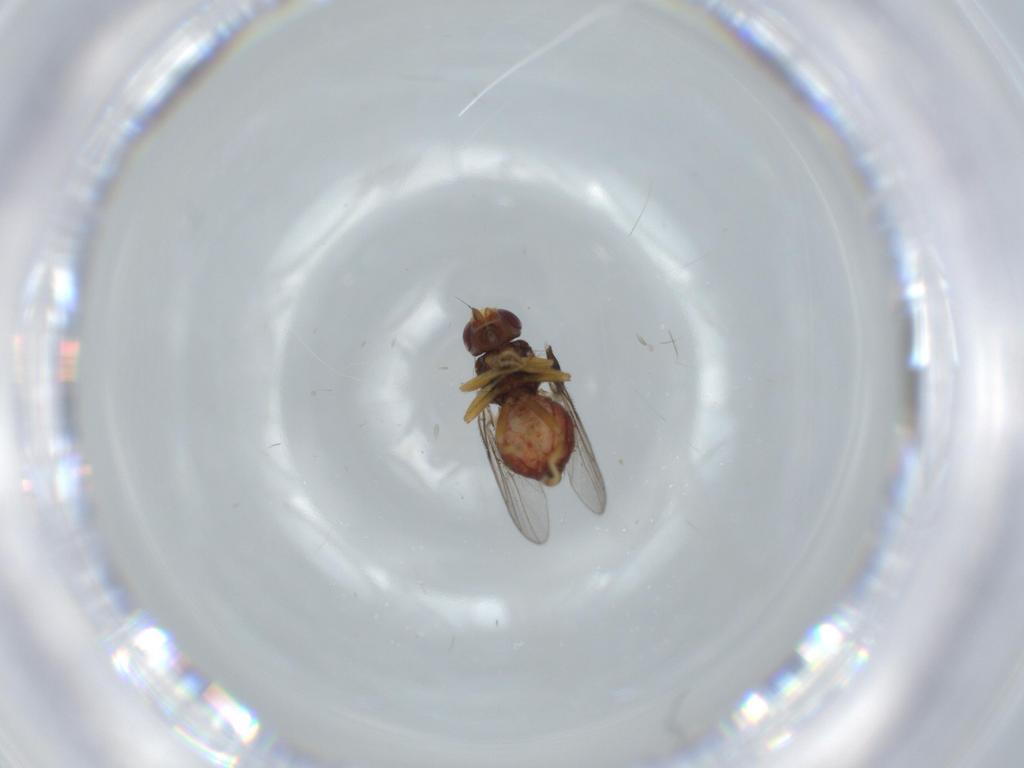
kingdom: Animalia
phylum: Arthropoda
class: Insecta
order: Diptera
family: Chloropidae
